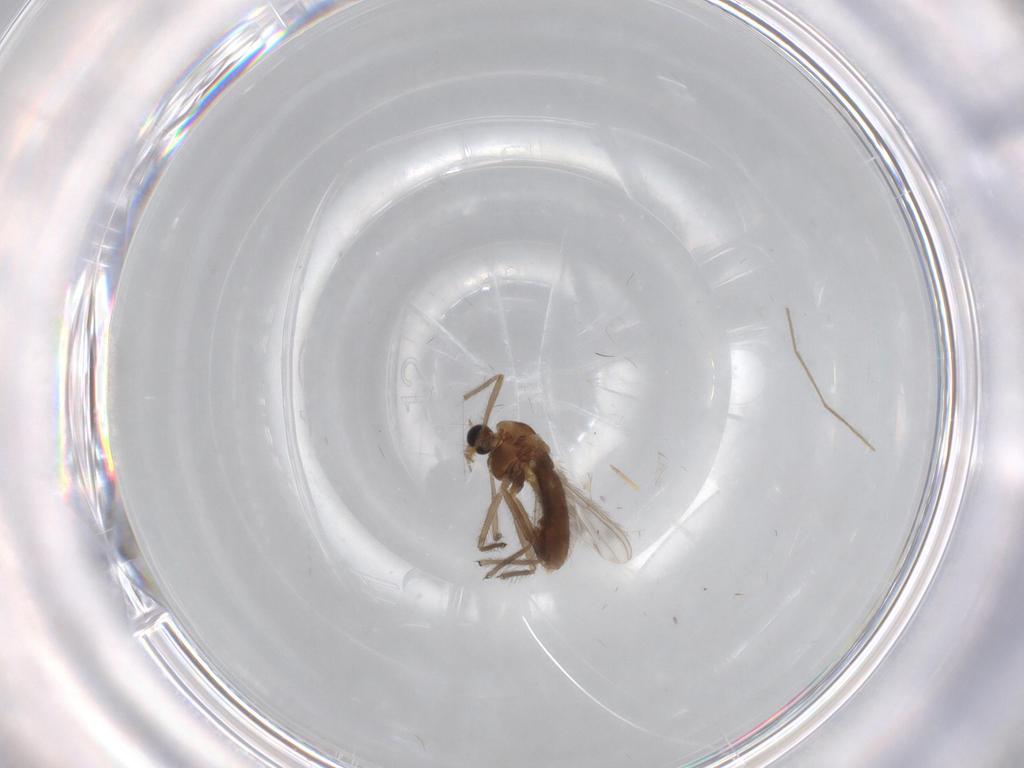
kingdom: Animalia
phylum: Arthropoda
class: Insecta
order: Diptera
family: Chironomidae
